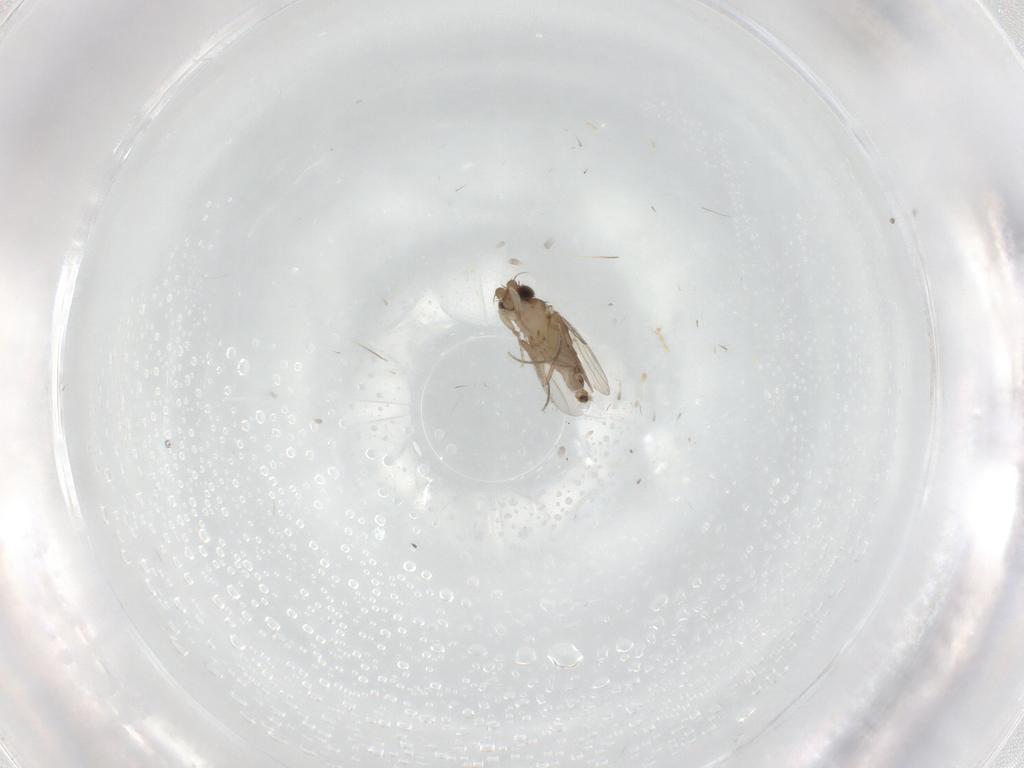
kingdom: Animalia
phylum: Arthropoda
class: Insecta
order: Diptera
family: Phoridae
